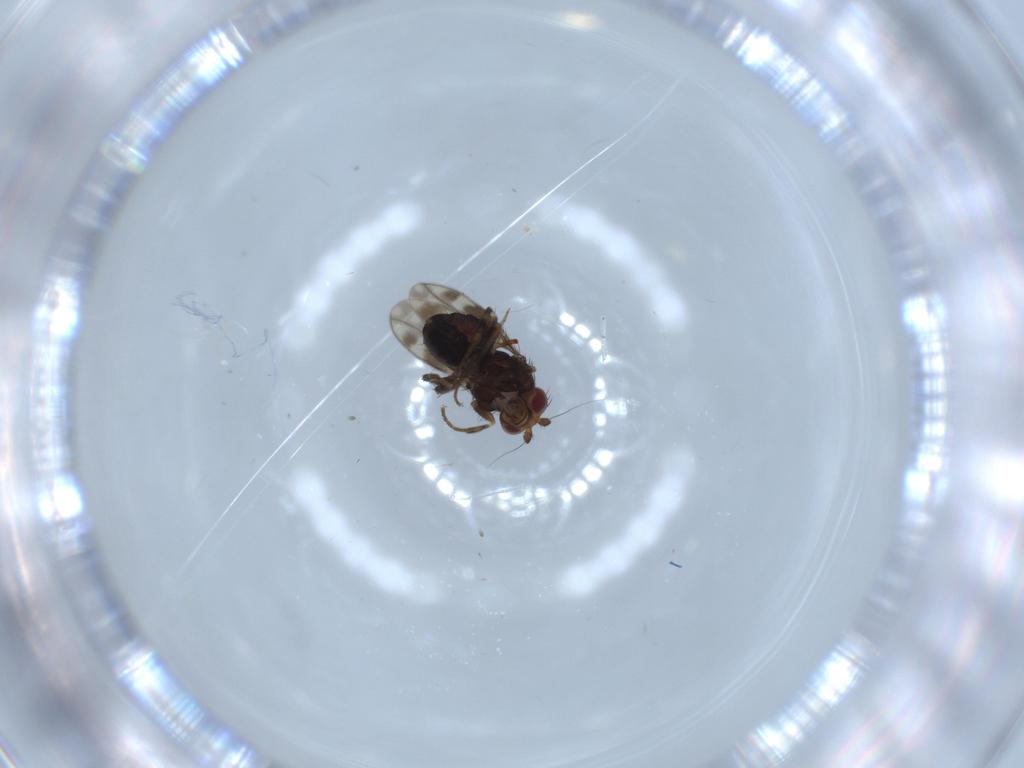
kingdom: Animalia
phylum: Arthropoda
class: Insecta
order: Diptera
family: Sphaeroceridae
